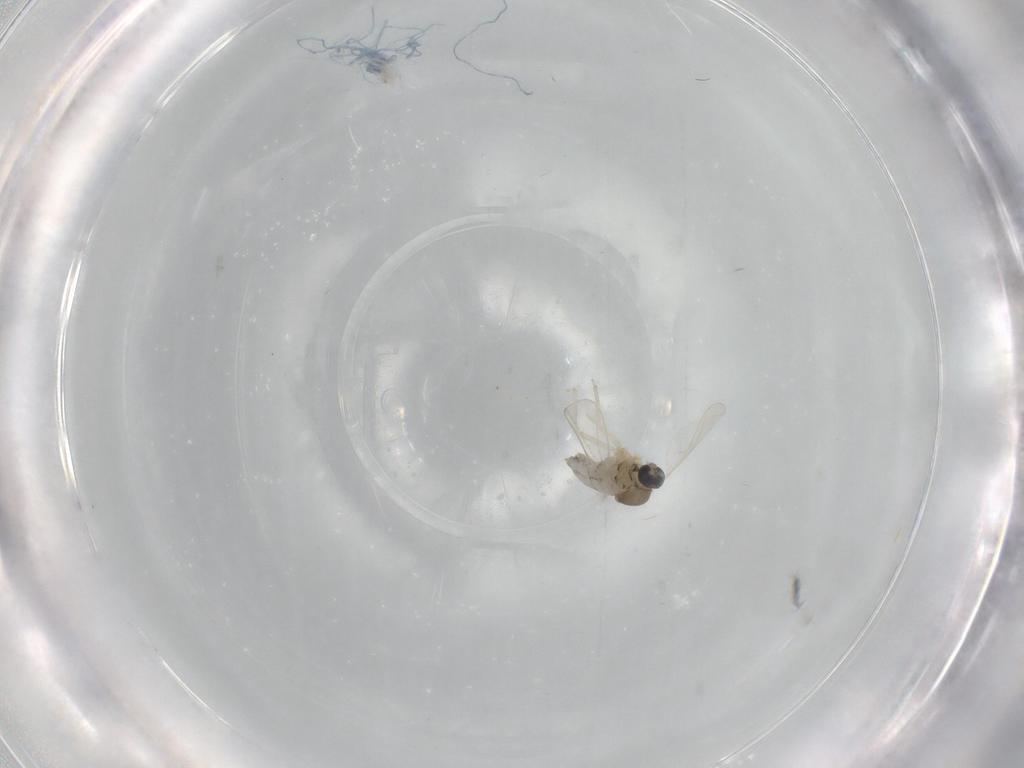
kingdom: Animalia
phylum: Arthropoda
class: Insecta
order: Diptera
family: Cecidomyiidae
